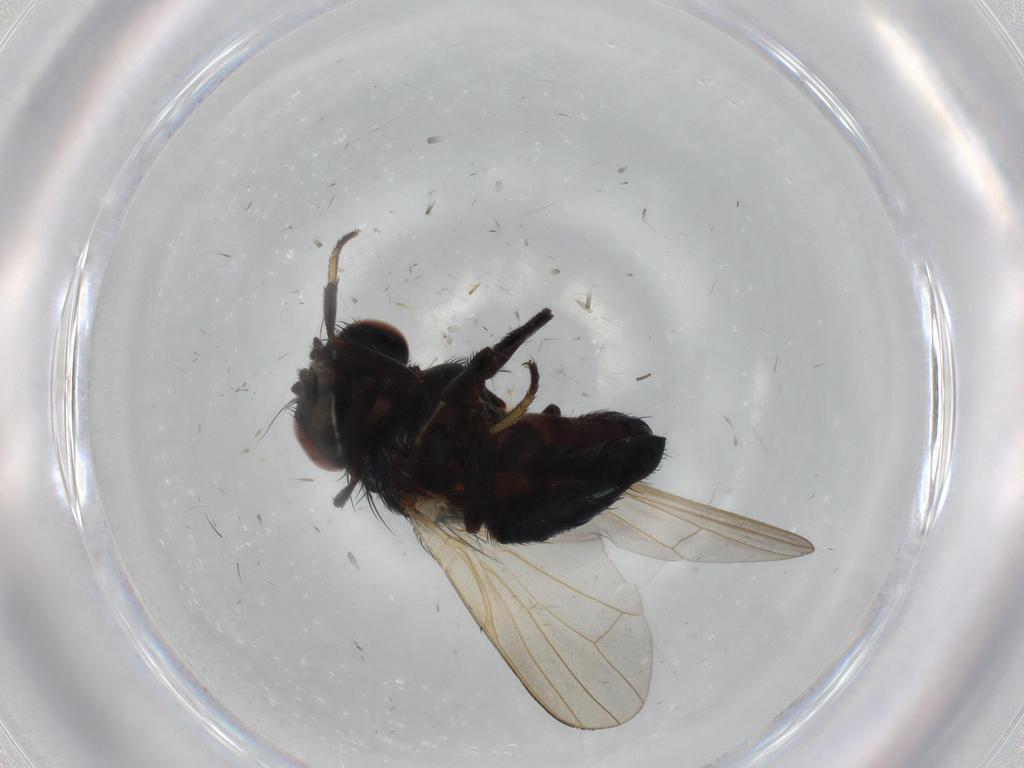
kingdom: Animalia
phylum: Arthropoda
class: Insecta
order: Diptera
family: Lonchaeidae
